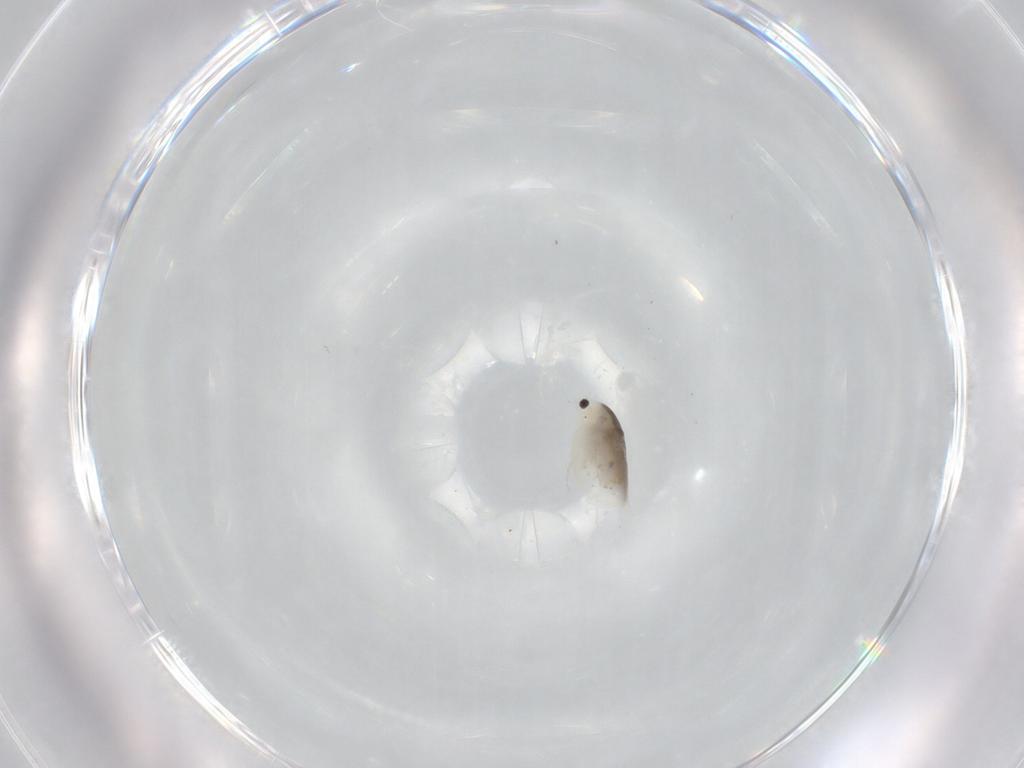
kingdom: Animalia
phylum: Arthropoda
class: Branchiopoda
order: Diplostraca
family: Daphniidae
